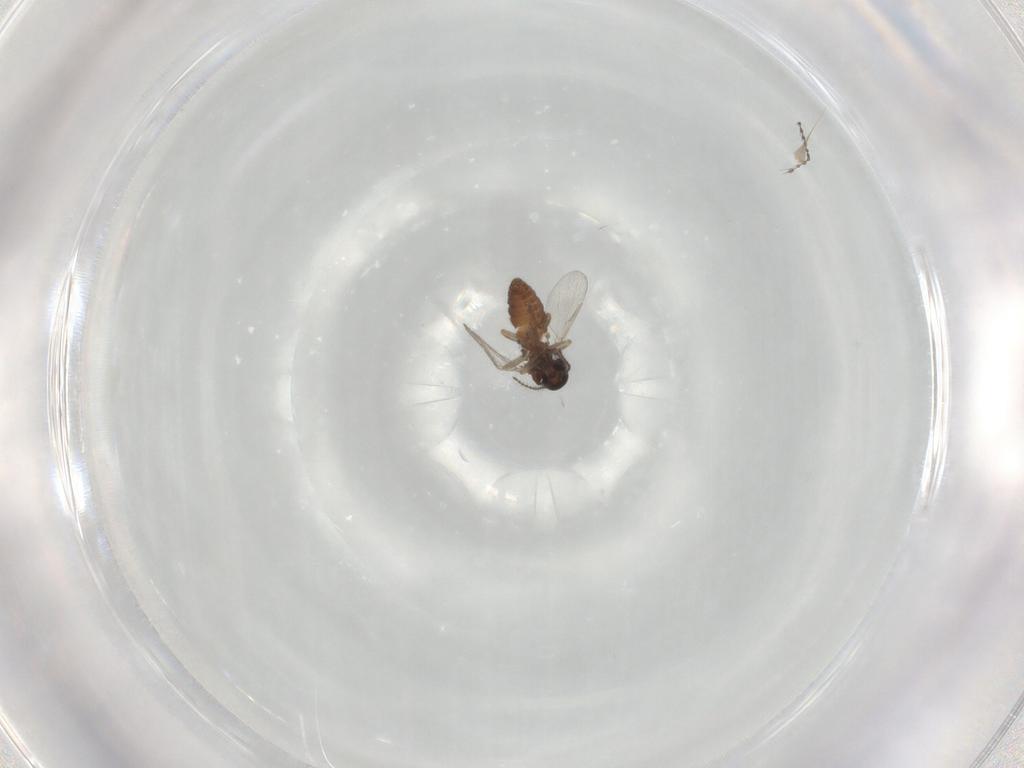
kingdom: Animalia
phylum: Arthropoda
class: Insecta
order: Diptera
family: Ceratopogonidae
